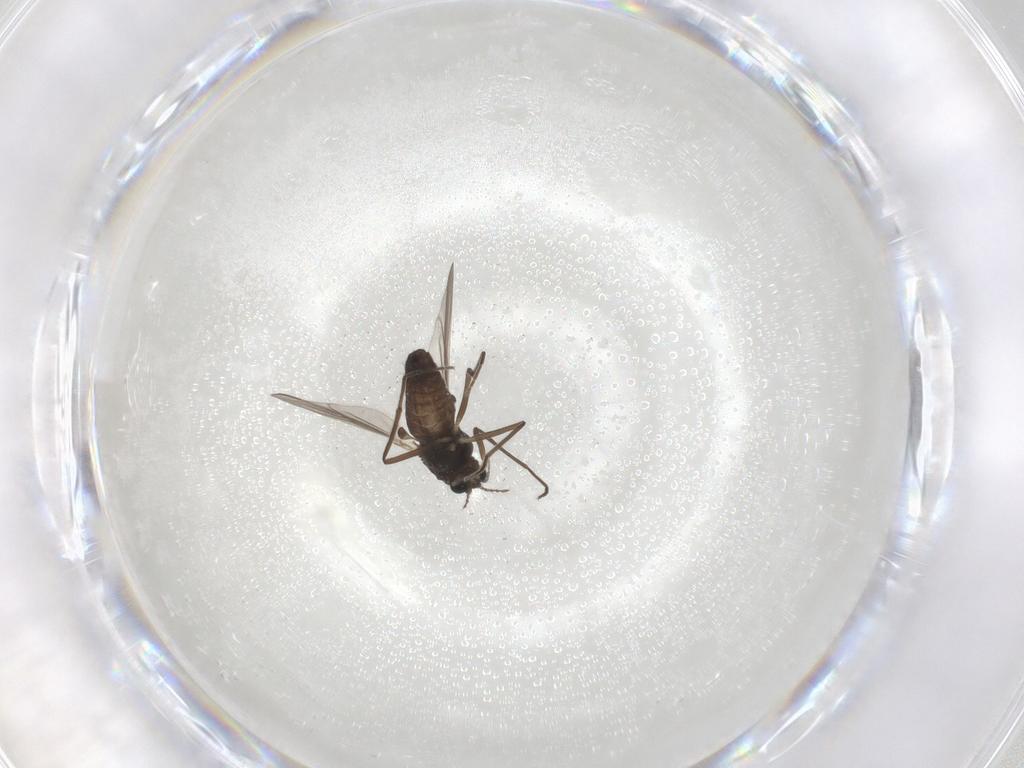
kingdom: Animalia
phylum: Arthropoda
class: Insecta
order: Diptera
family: Chironomidae
